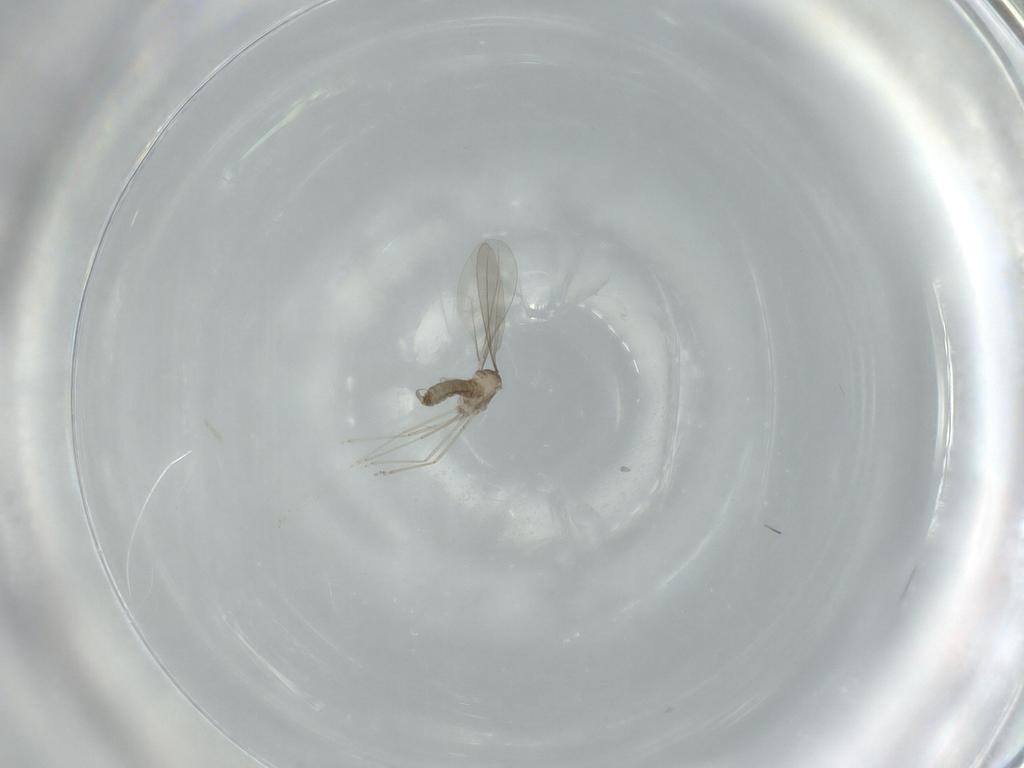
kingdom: Animalia
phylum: Arthropoda
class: Insecta
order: Diptera
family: Cecidomyiidae
